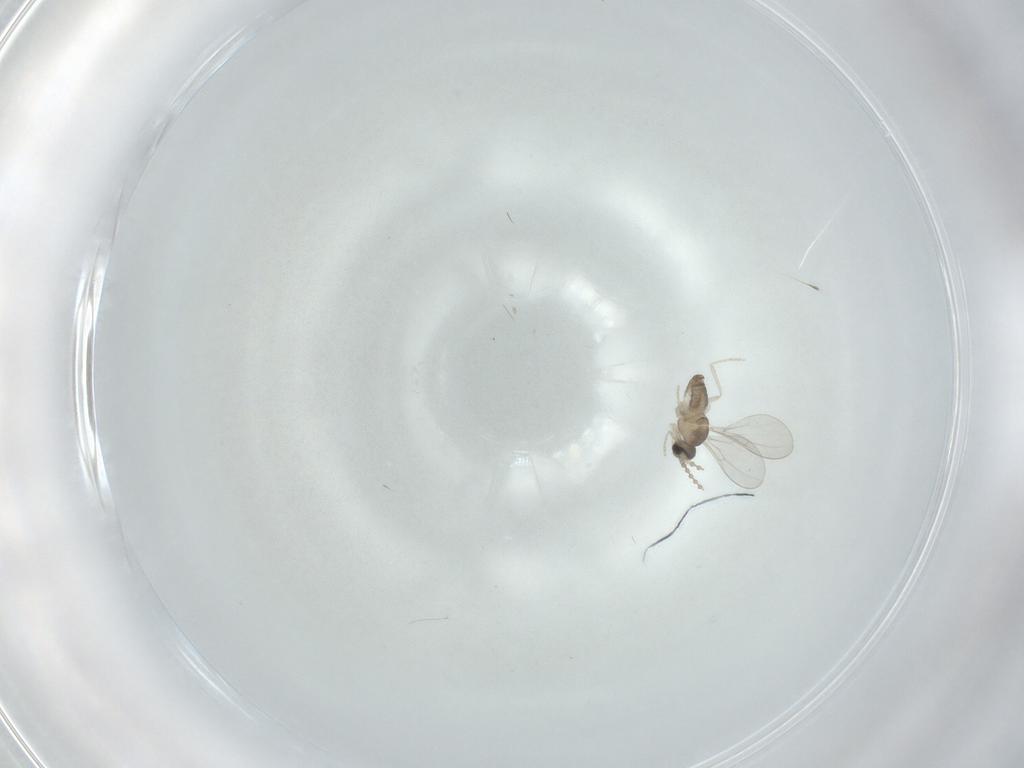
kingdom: Animalia
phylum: Arthropoda
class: Insecta
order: Diptera
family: Cecidomyiidae
